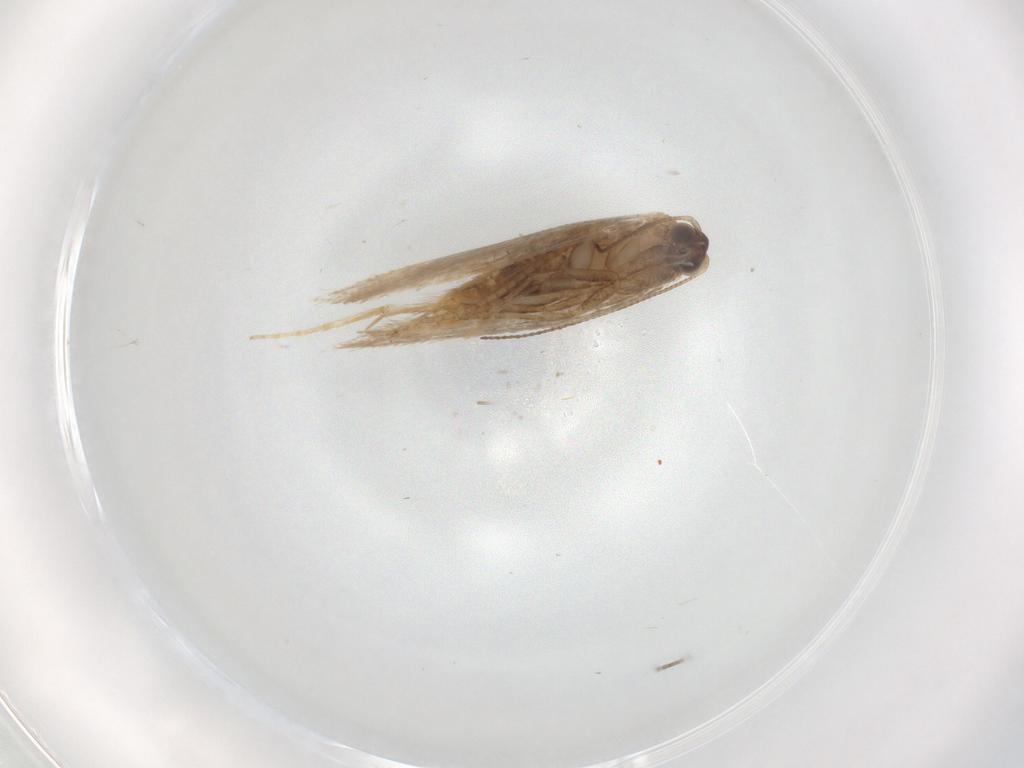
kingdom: Animalia
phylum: Arthropoda
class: Insecta
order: Lepidoptera
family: Nepticulidae
